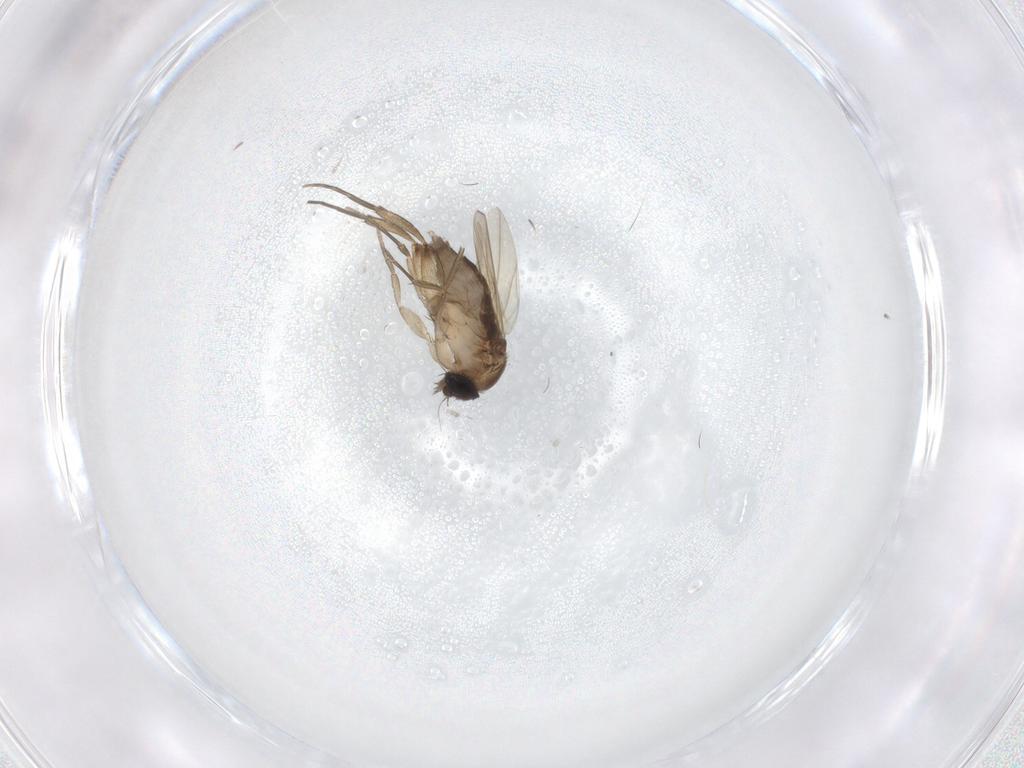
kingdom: Animalia
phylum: Arthropoda
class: Insecta
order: Diptera
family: Phoridae
